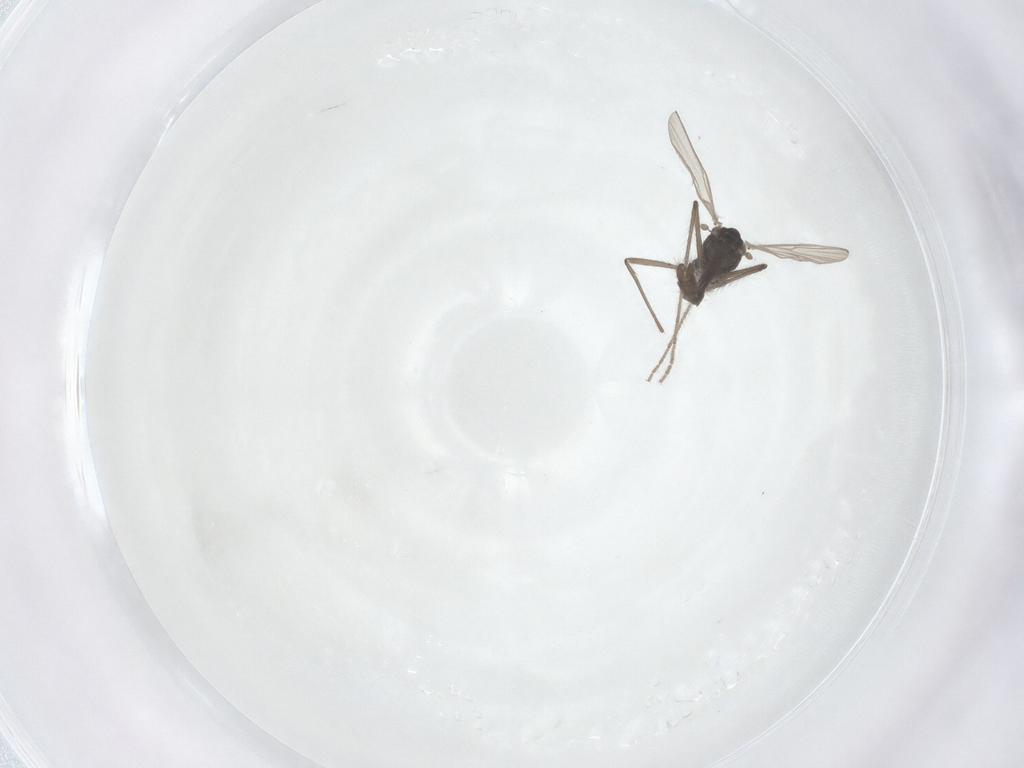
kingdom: Animalia
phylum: Arthropoda
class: Insecta
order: Diptera
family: Chironomidae
